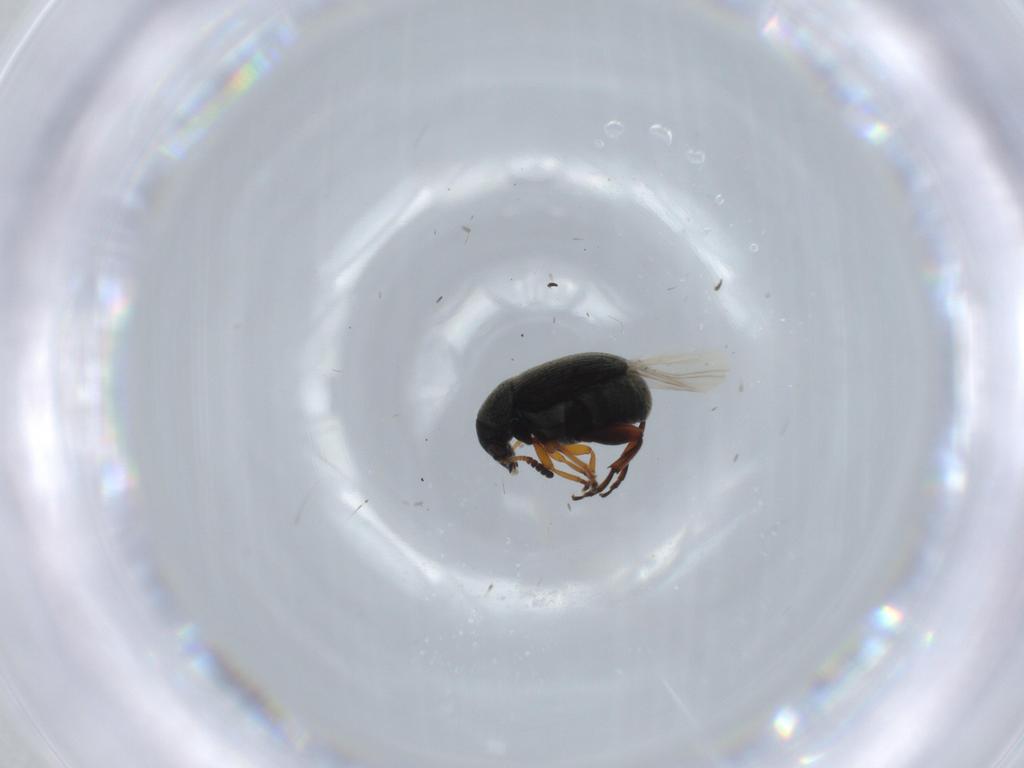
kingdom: Animalia
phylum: Arthropoda
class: Insecta
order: Coleoptera
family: Chrysomelidae
